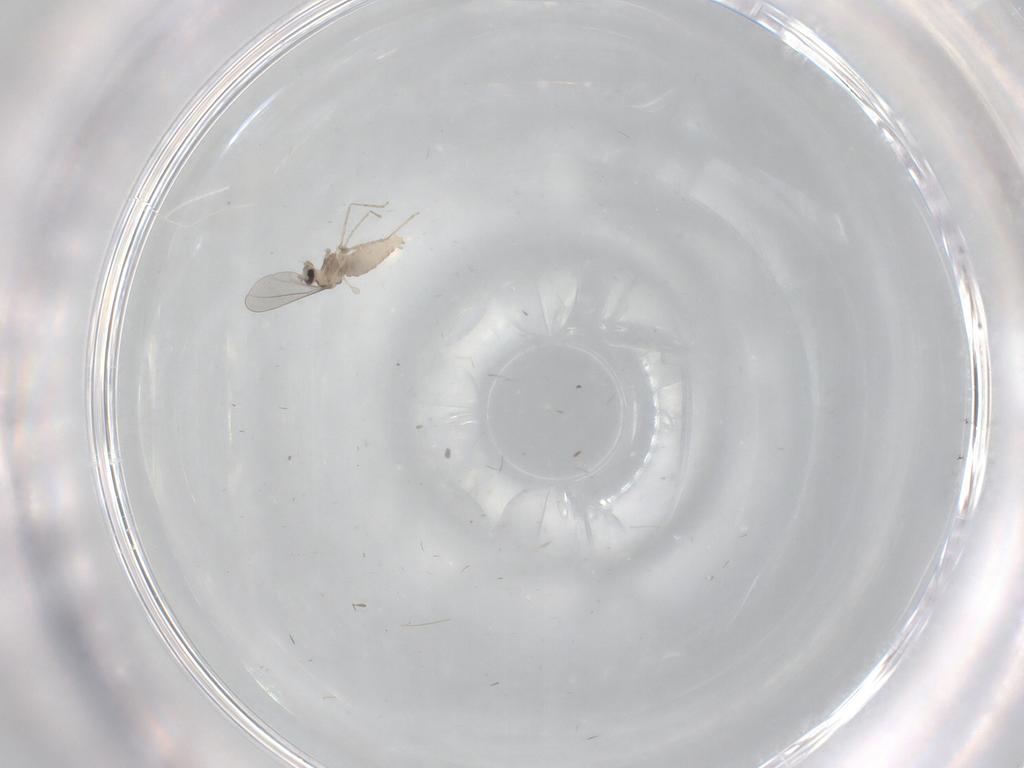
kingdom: Animalia
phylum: Arthropoda
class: Insecta
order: Diptera
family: Cecidomyiidae
